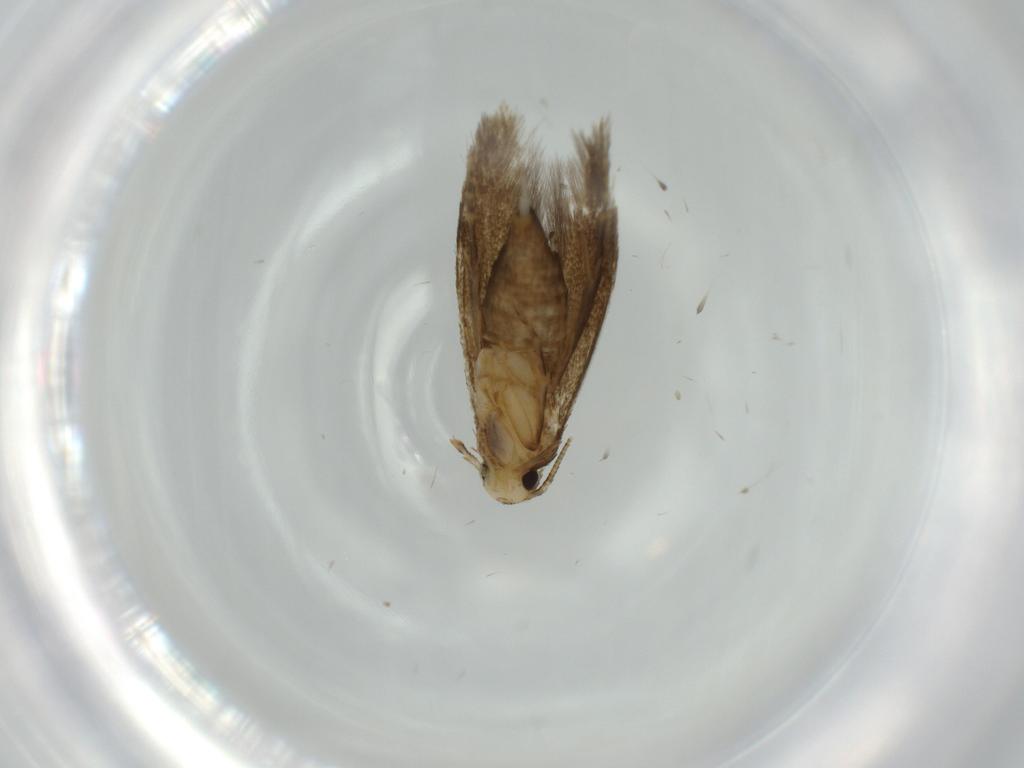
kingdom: Animalia
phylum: Arthropoda
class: Insecta
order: Lepidoptera
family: Tineidae
